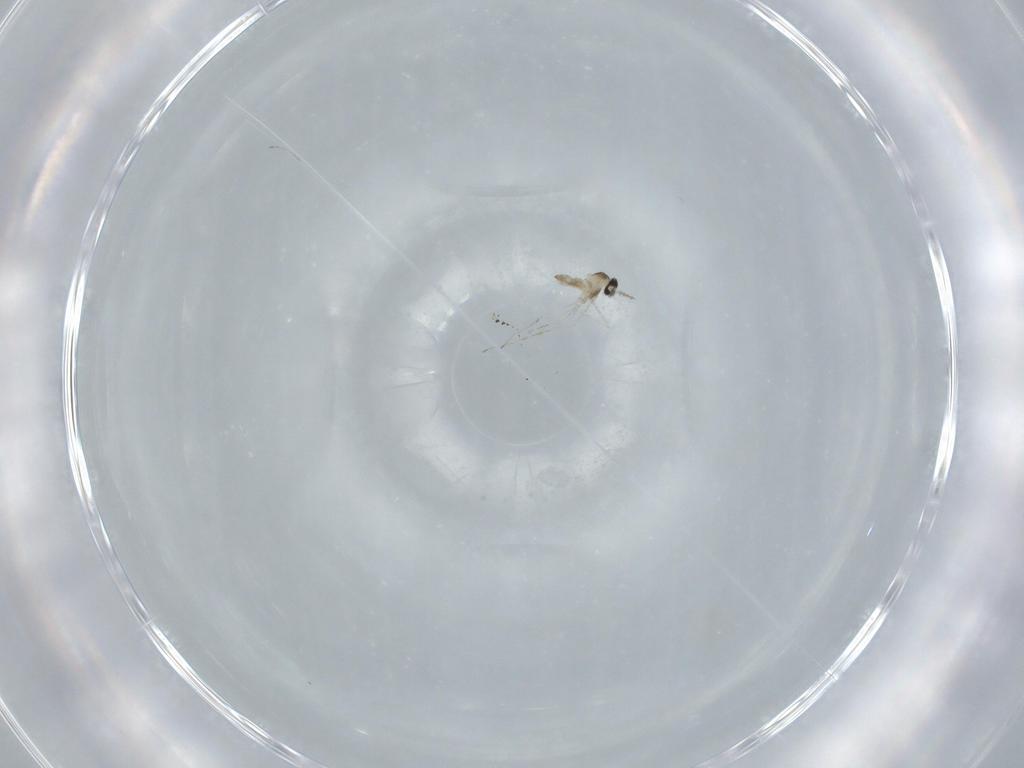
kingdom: Animalia
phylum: Arthropoda
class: Insecta
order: Diptera
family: Cecidomyiidae
